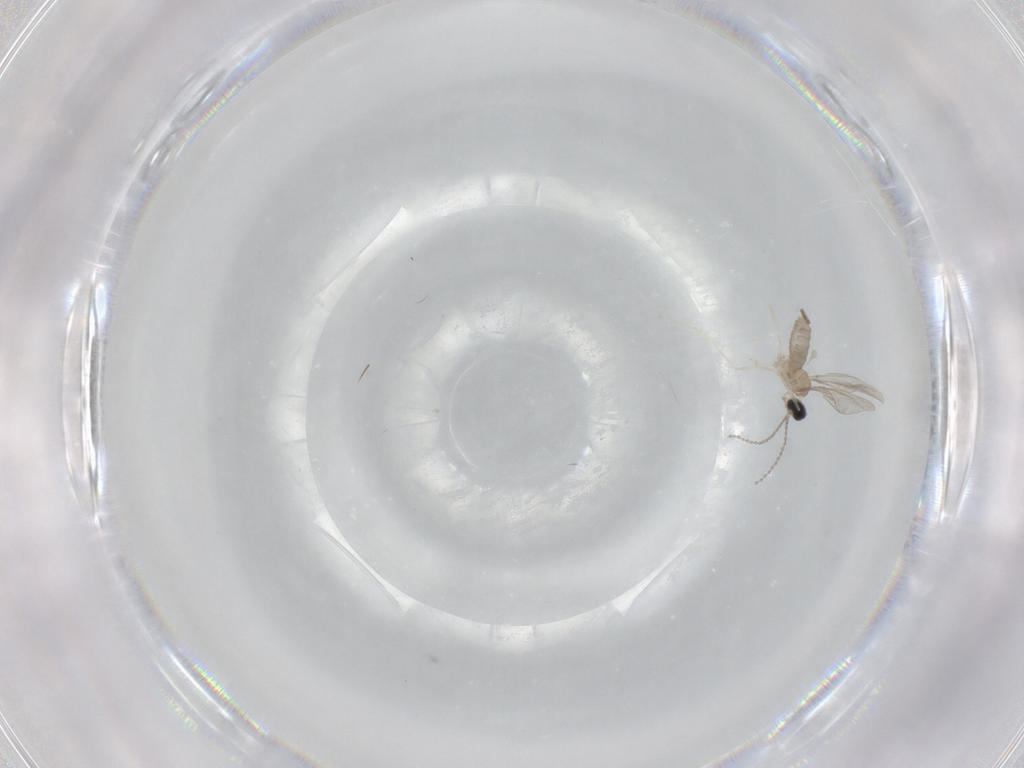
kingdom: Animalia
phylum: Arthropoda
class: Insecta
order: Diptera
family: Cecidomyiidae
